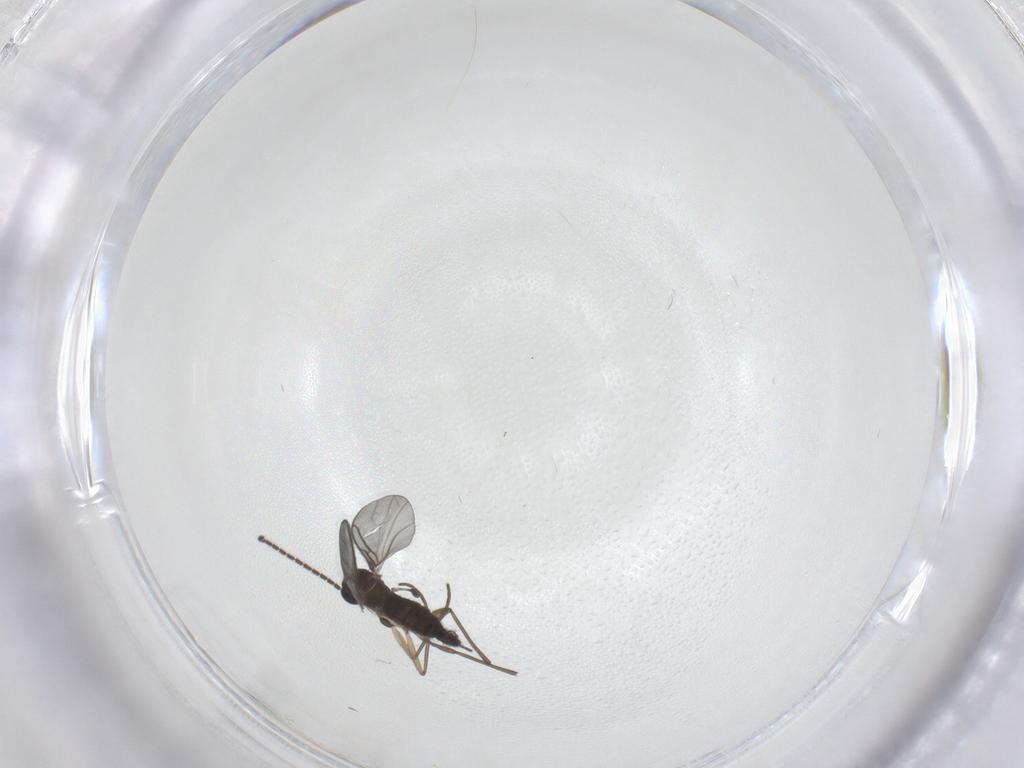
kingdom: Animalia
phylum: Arthropoda
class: Insecta
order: Diptera
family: Sciaridae
